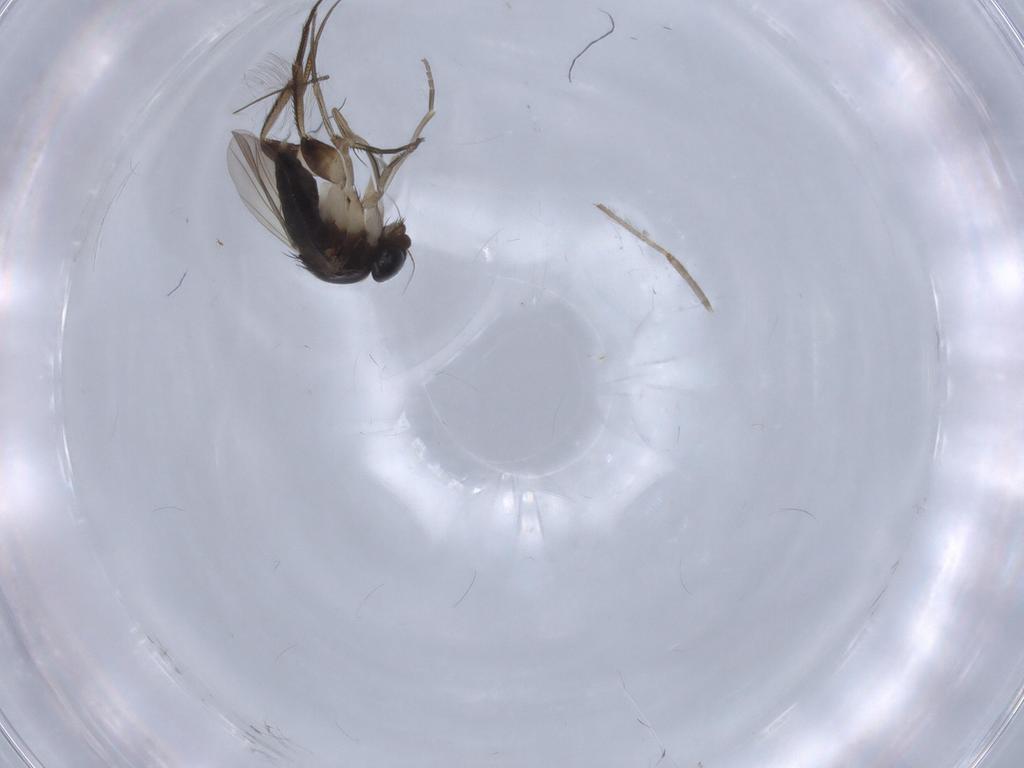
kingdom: Animalia
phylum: Arthropoda
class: Insecta
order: Diptera
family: Phoridae
